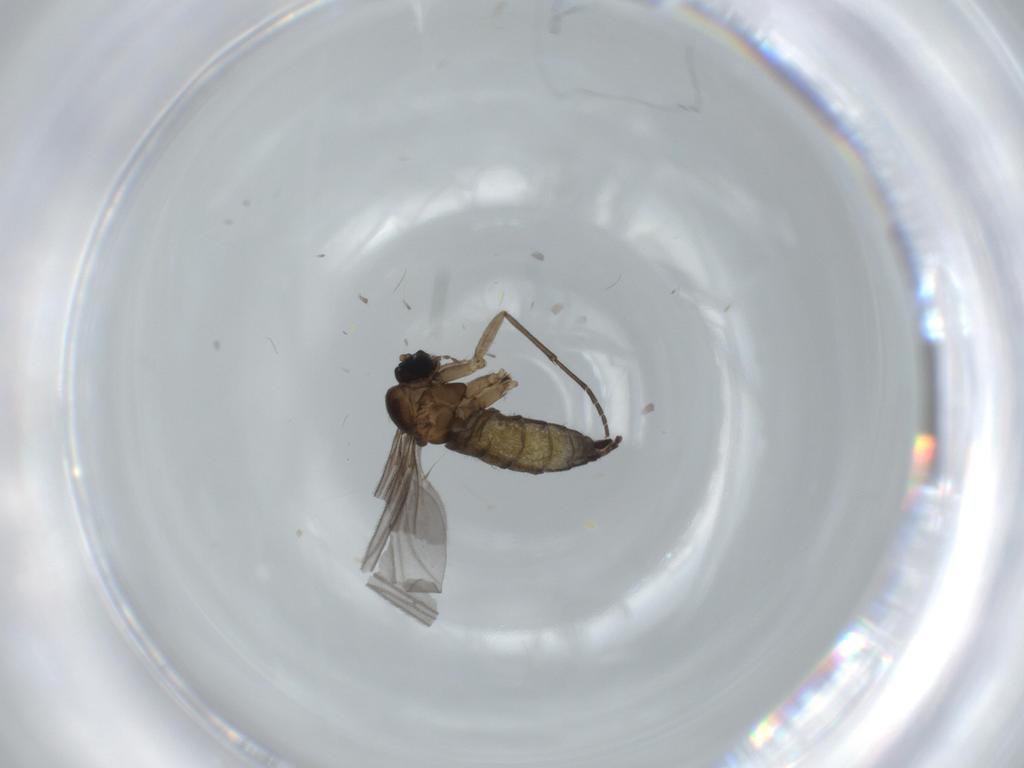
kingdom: Animalia
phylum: Arthropoda
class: Insecta
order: Diptera
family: Sciaridae
